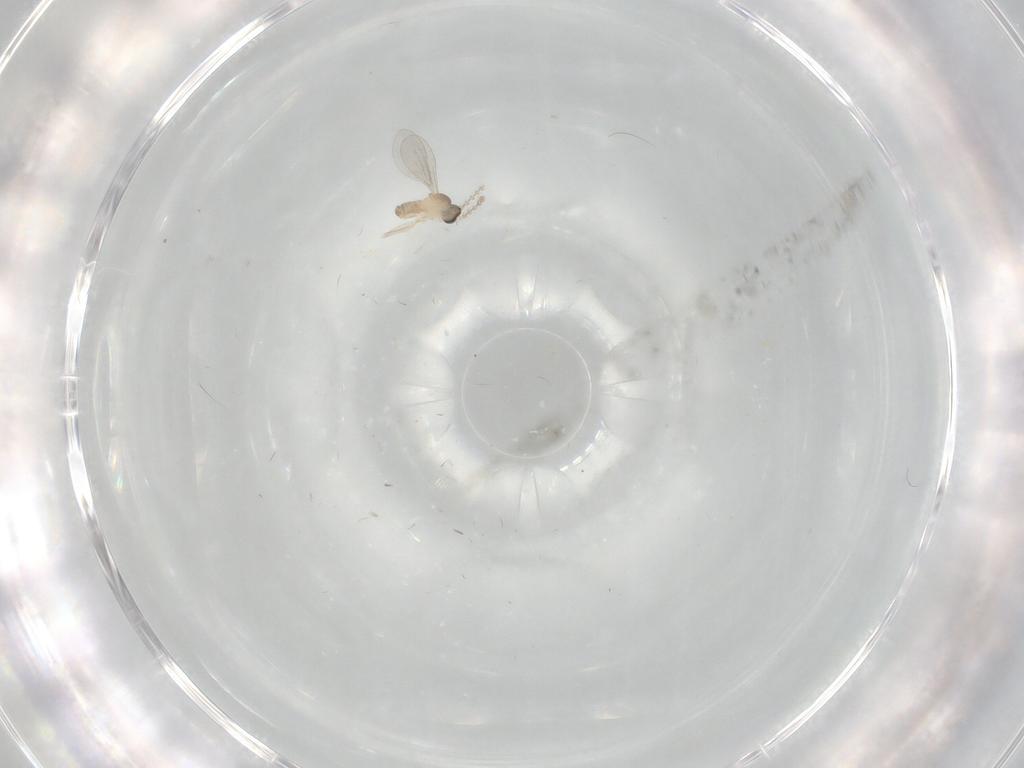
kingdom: Animalia
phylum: Arthropoda
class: Insecta
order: Diptera
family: Cecidomyiidae
